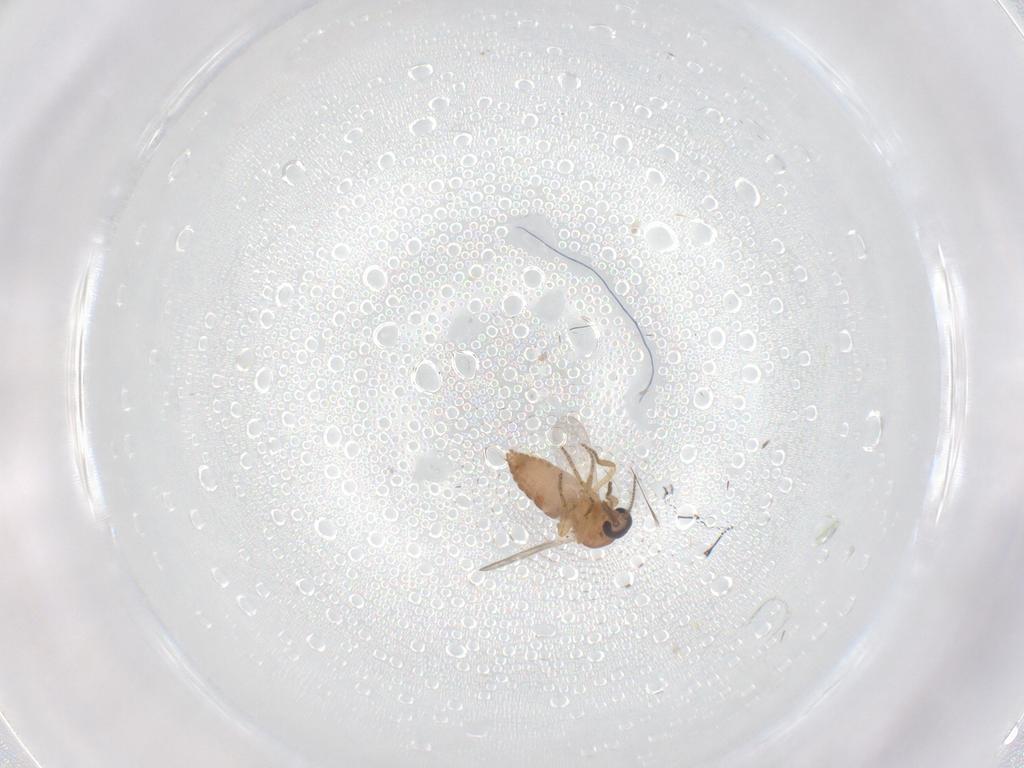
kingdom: Animalia
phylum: Arthropoda
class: Insecta
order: Diptera
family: Ceratopogonidae
